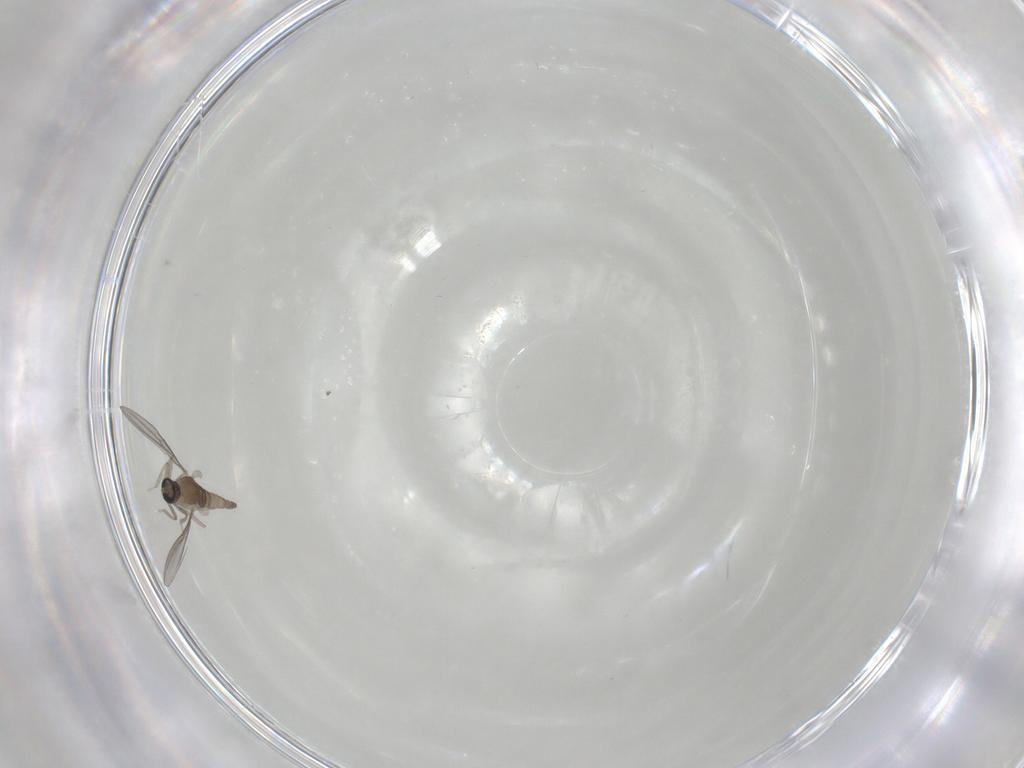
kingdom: Animalia
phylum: Arthropoda
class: Insecta
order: Diptera
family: Cecidomyiidae
